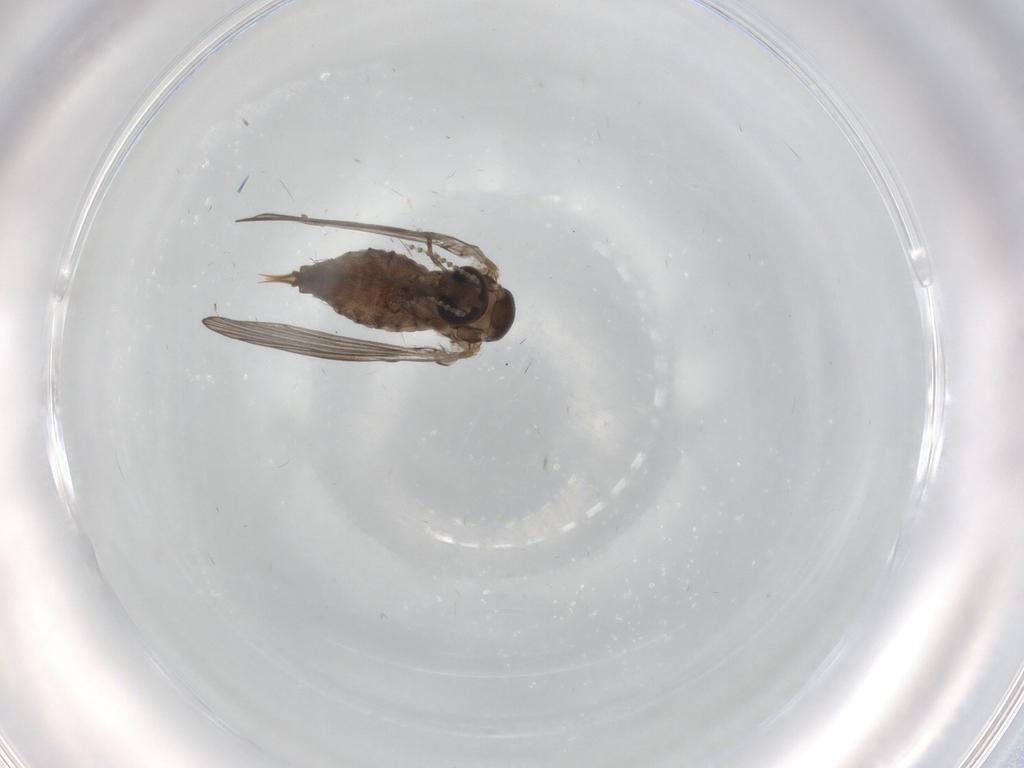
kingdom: Animalia
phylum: Arthropoda
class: Insecta
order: Diptera
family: Psychodidae
